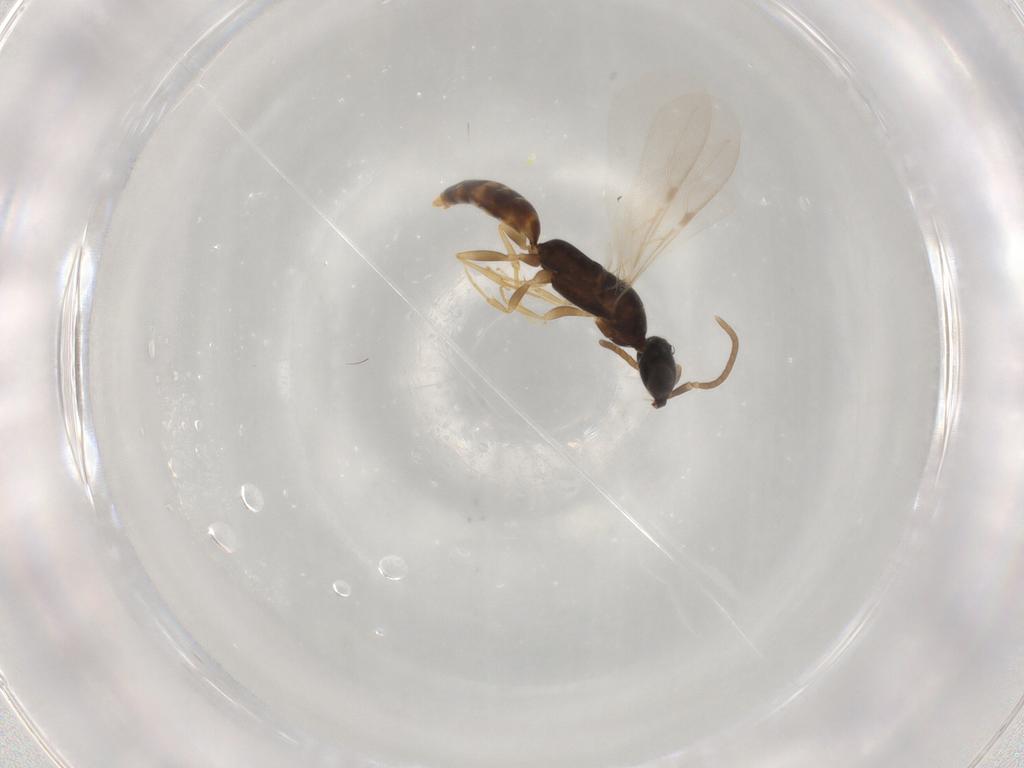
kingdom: Animalia
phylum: Arthropoda
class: Insecta
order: Hymenoptera
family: Bethylidae
